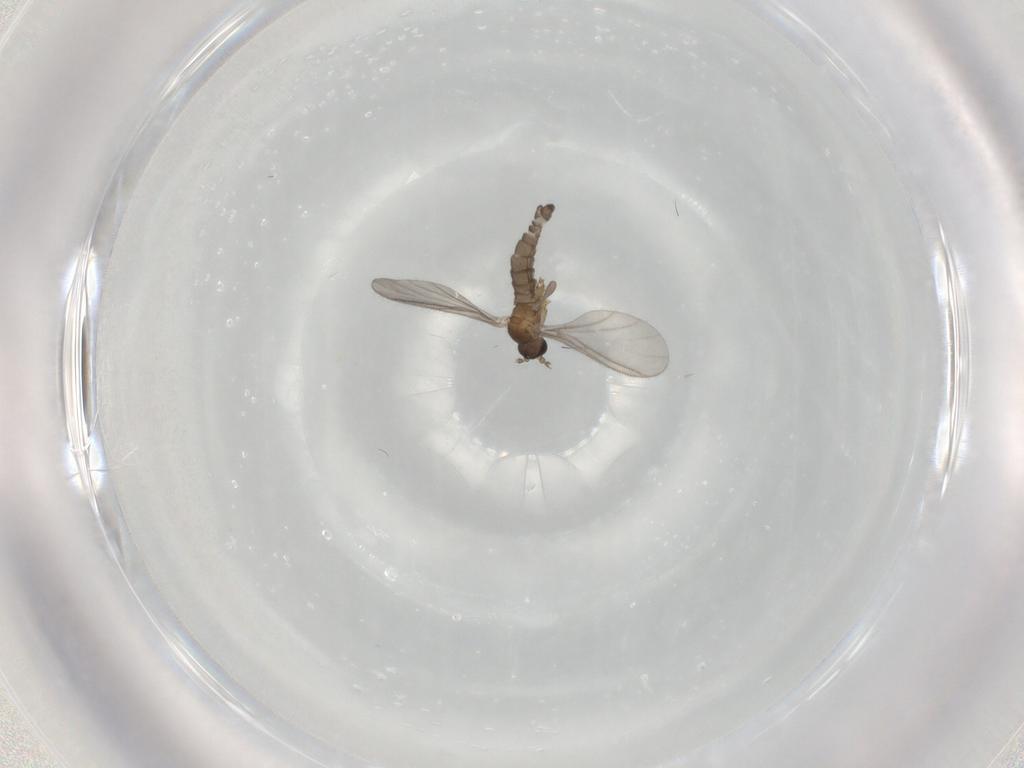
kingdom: Animalia
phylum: Arthropoda
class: Insecta
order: Diptera
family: Sciaridae
